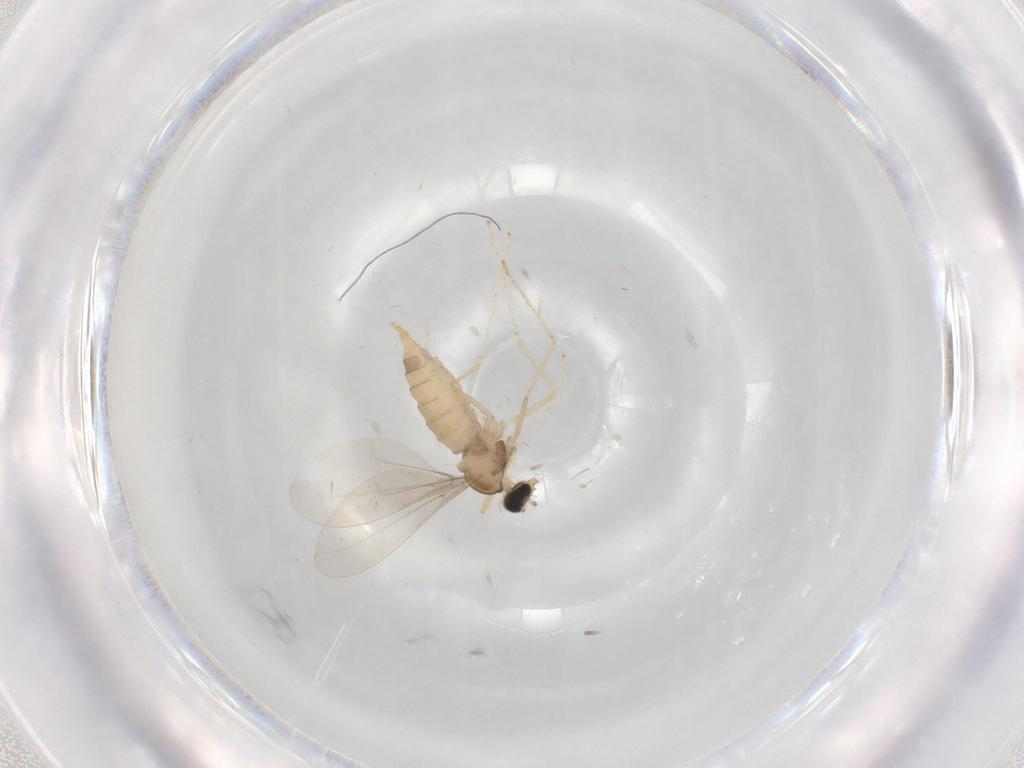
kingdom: Animalia
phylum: Arthropoda
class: Insecta
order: Diptera
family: Cecidomyiidae
